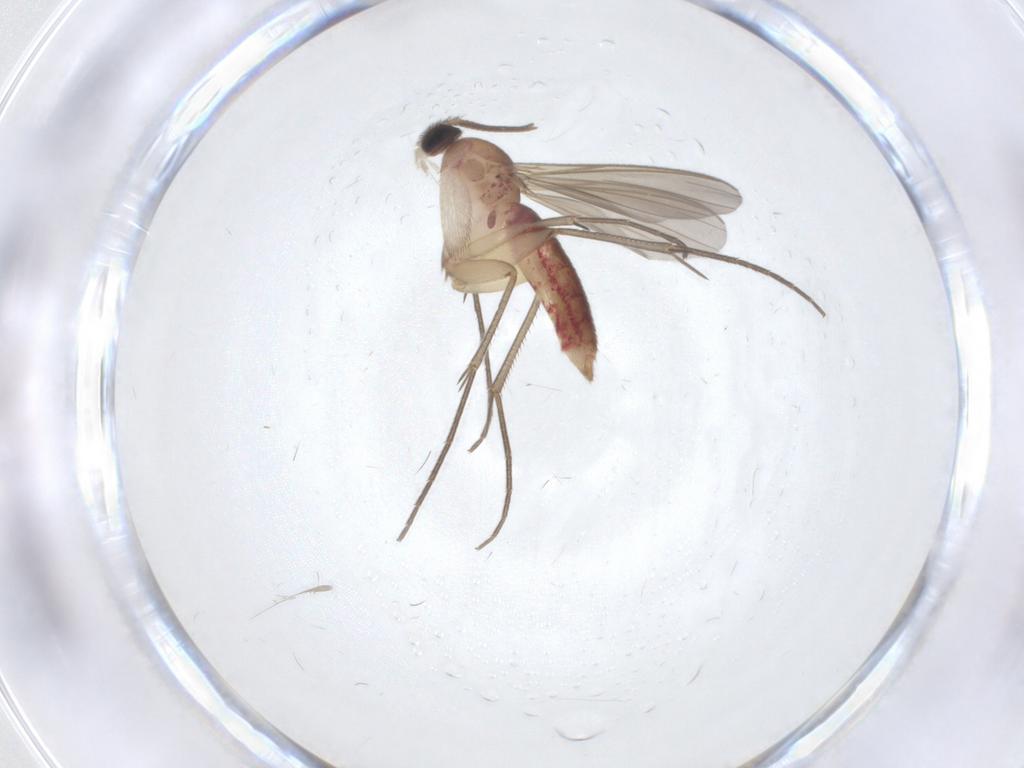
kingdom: Animalia
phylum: Arthropoda
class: Insecta
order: Diptera
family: Mycetophilidae
